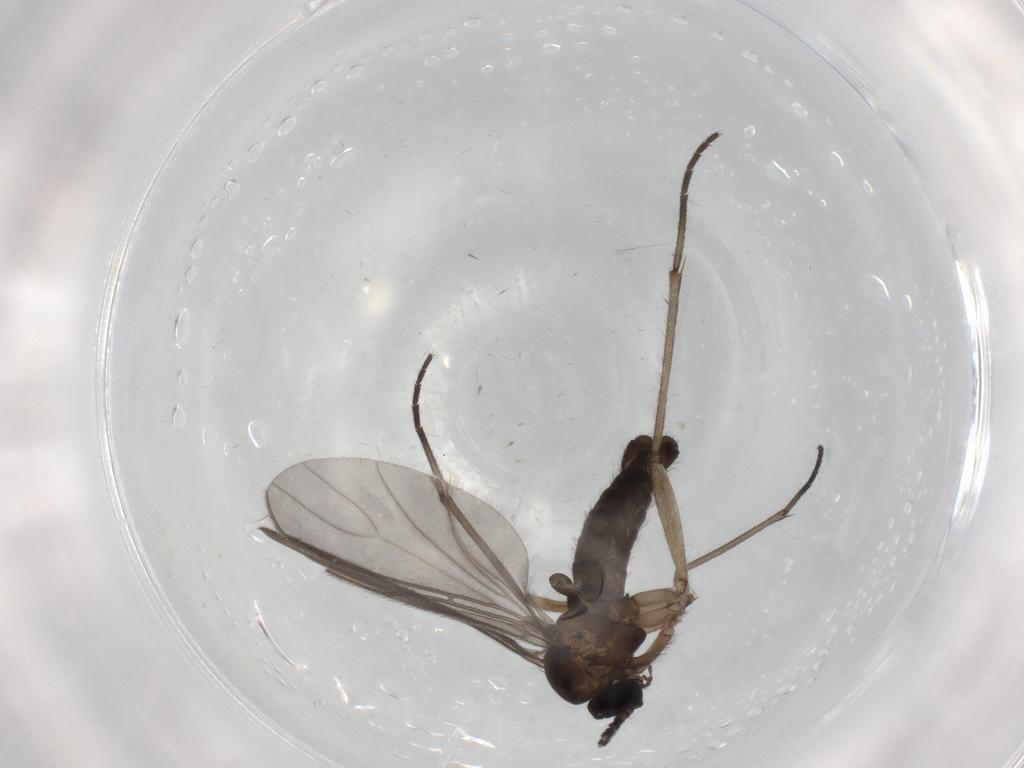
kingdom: Animalia
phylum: Arthropoda
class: Insecta
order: Diptera
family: Sciaridae
